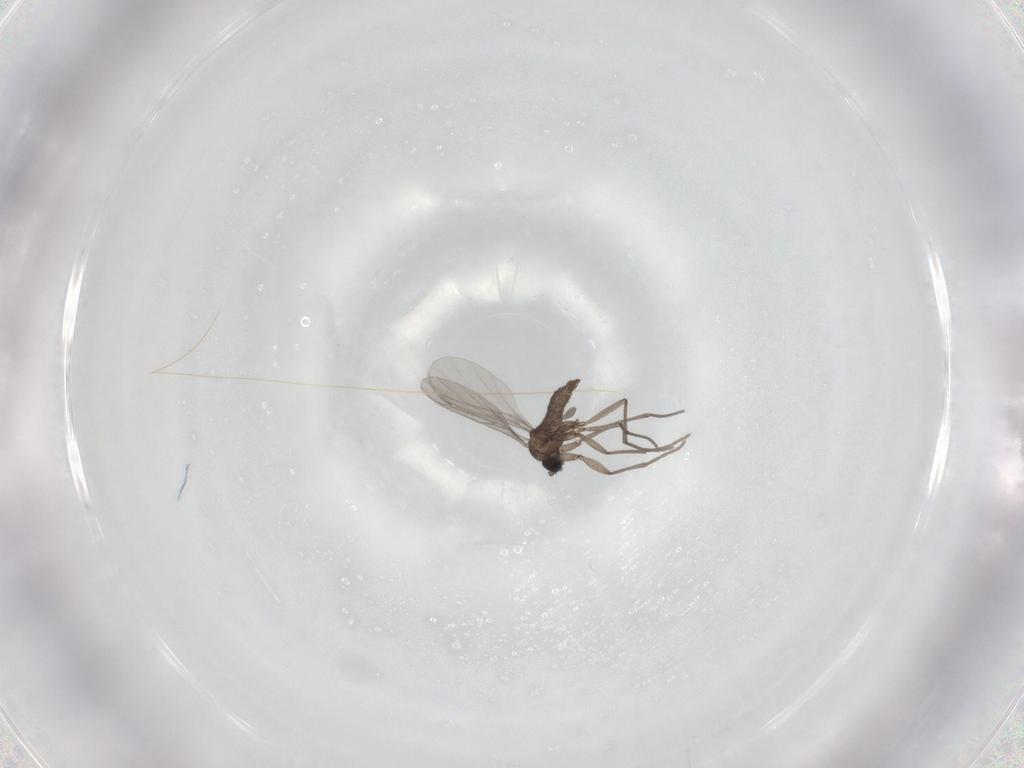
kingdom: Animalia
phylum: Arthropoda
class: Insecta
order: Diptera
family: Sciaridae
